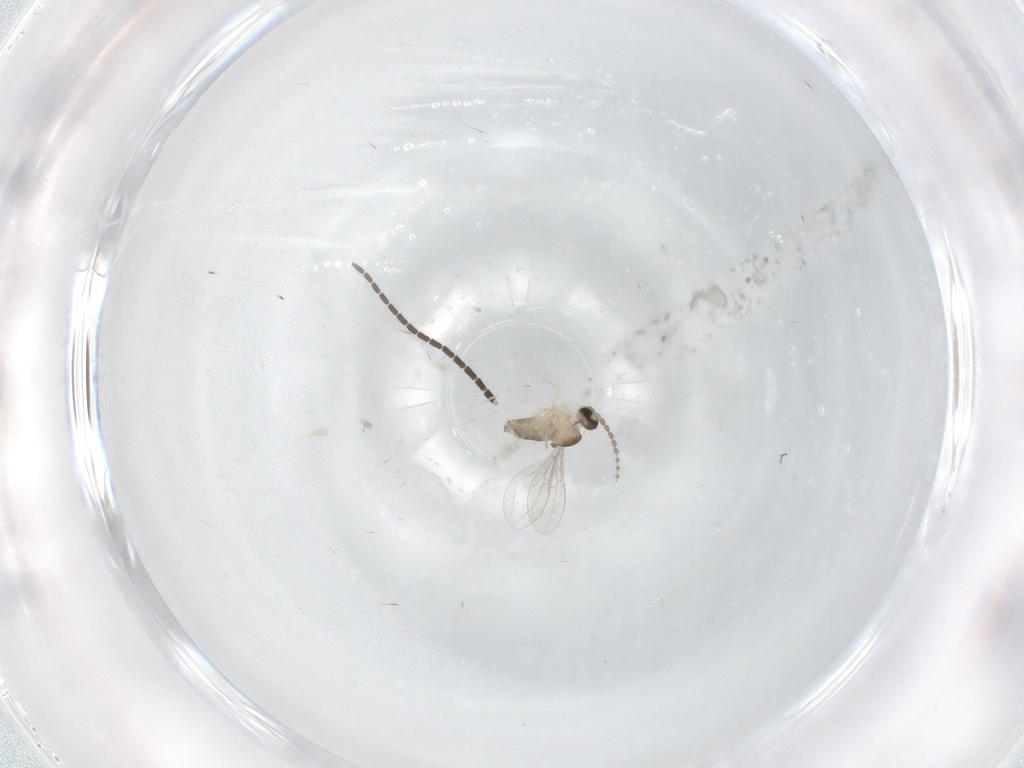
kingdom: Animalia
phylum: Arthropoda
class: Insecta
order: Diptera
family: Cecidomyiidae
